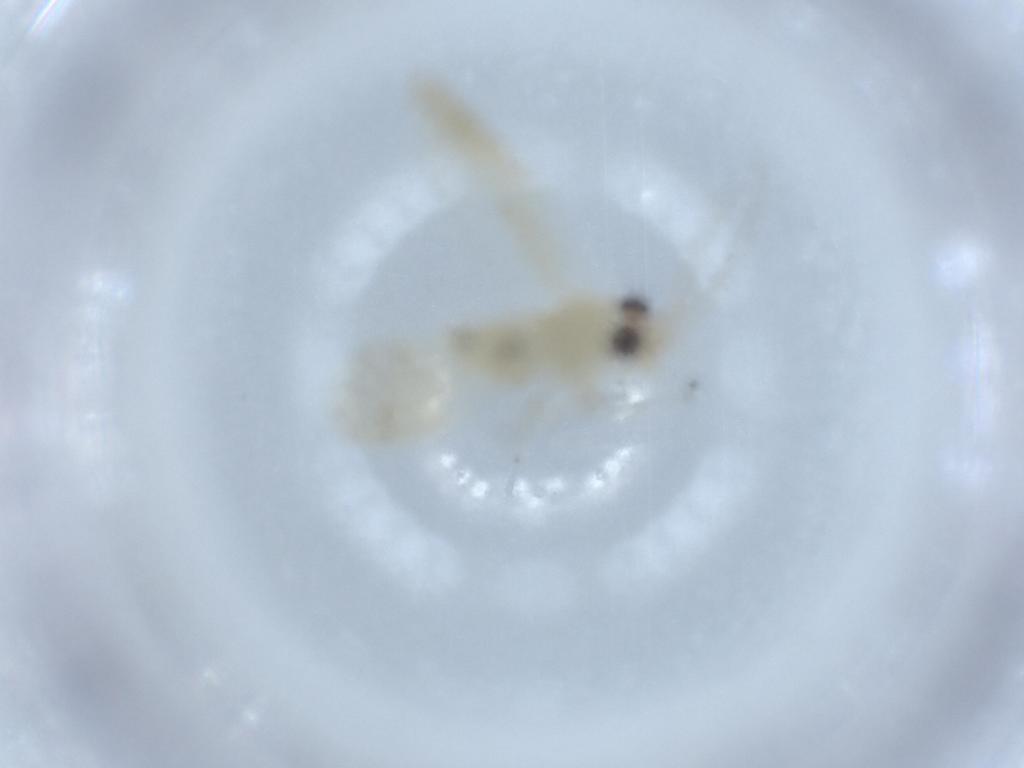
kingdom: Animalia
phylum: Arthropoda
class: Insecta
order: Psocodea
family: Caeciliusidae
